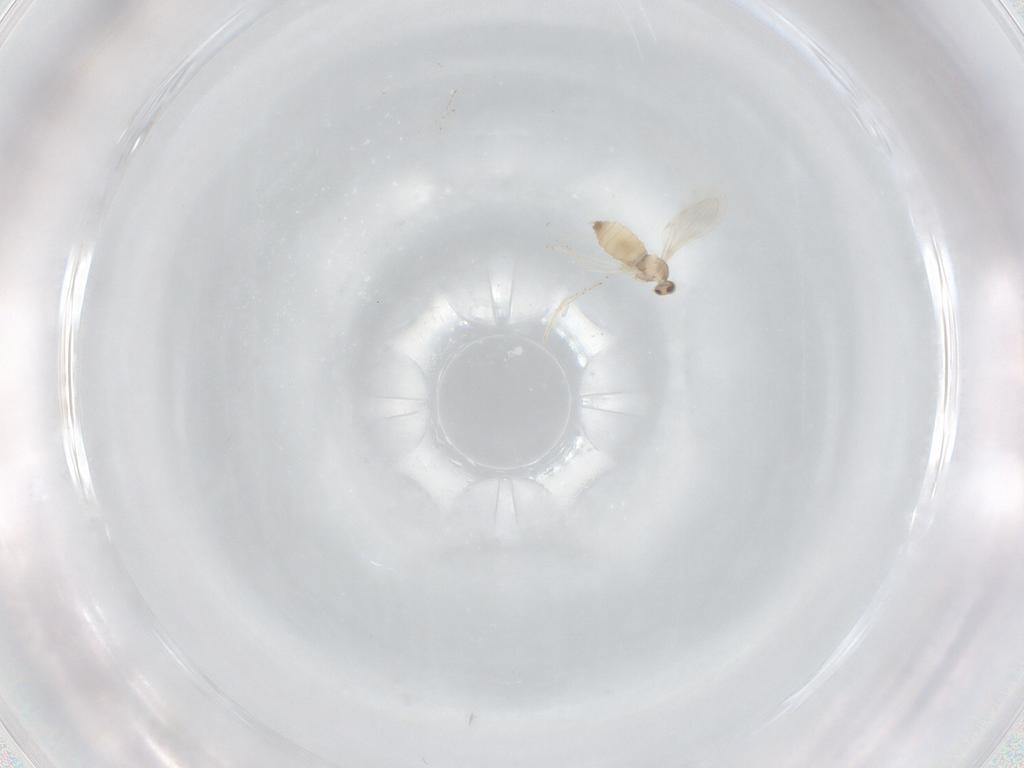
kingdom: Animalia
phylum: Arthropoda
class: Insecta
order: Diptera
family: Cecidomyiidae
